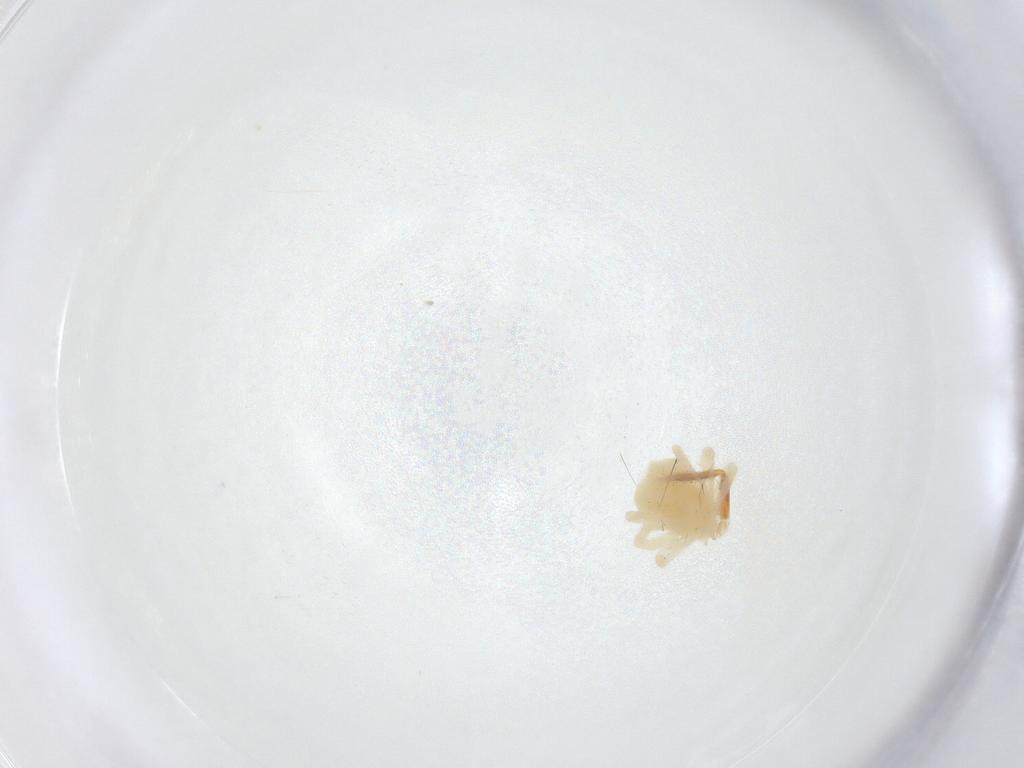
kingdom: Animalia
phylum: Arthropoda
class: Arachnida
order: Trombidiformes
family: Anystidae
